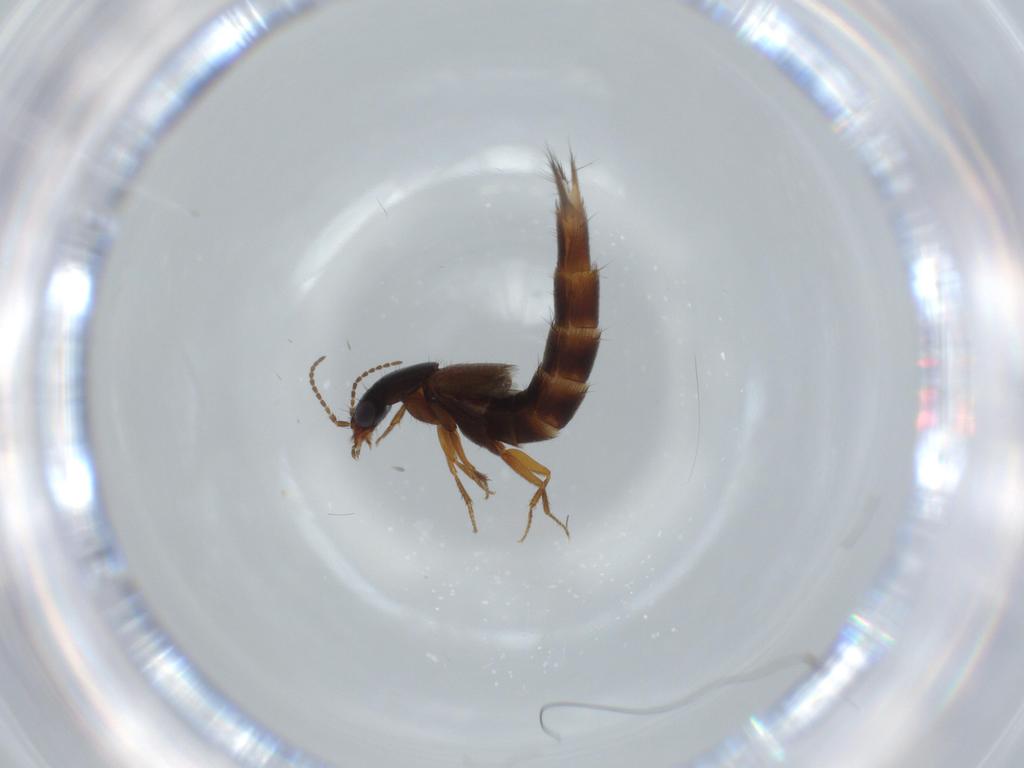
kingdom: Animalia
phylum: Arthropoda
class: Insecta
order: Coleoptera
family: Staphylinidae
